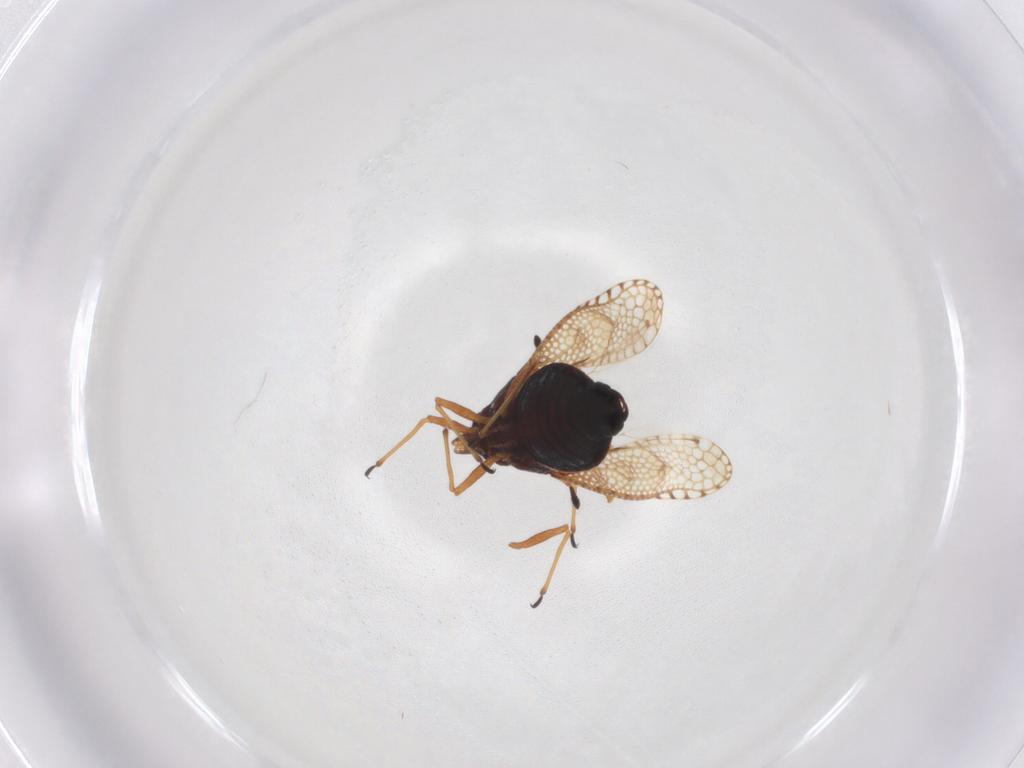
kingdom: Animalia
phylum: Arthropoda
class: Insecta
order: Hemiptera
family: Tingidae
